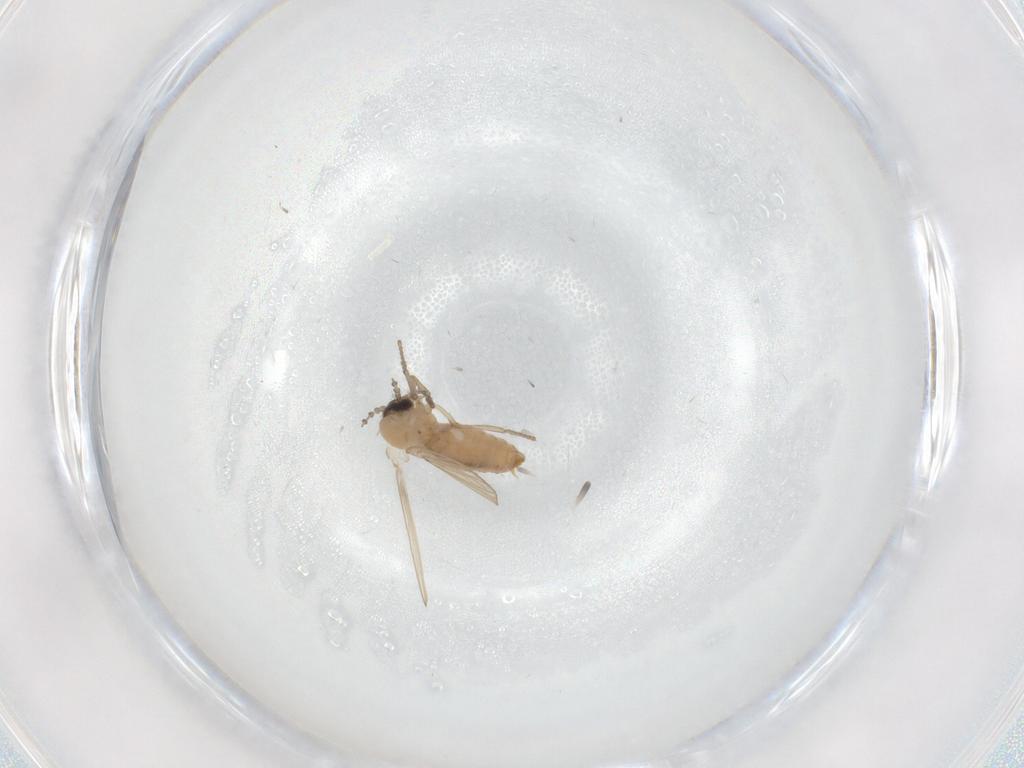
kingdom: Animalia
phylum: Arthropoda
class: Insecta
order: Diptera
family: Psychodidae
